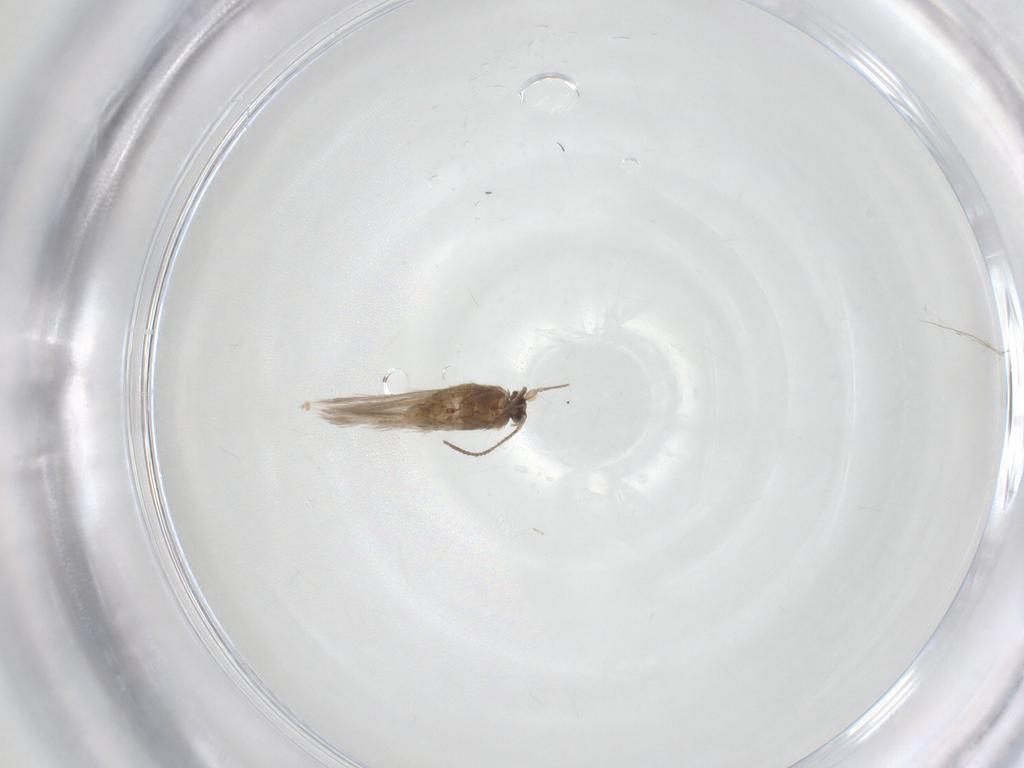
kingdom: Animalia
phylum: Arthropoda
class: Insecta
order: Lepidoptera
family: Nepticulidae
